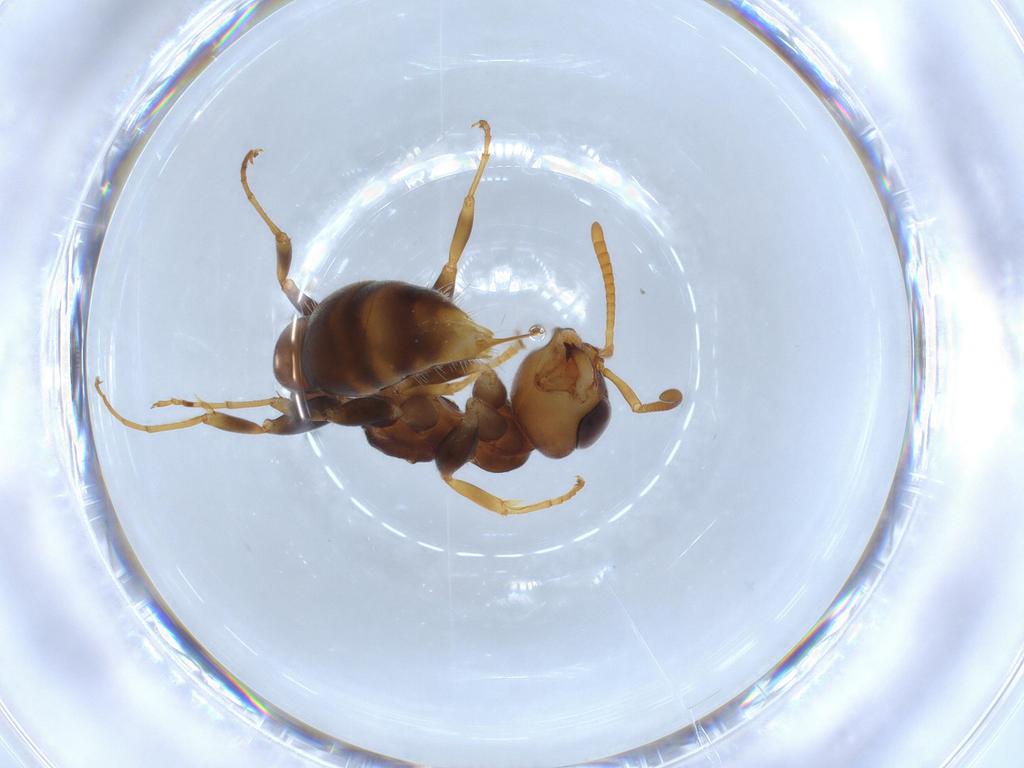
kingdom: Animalia
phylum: Arthropoda
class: Insecta
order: Hymenoptera
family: Formicidae
